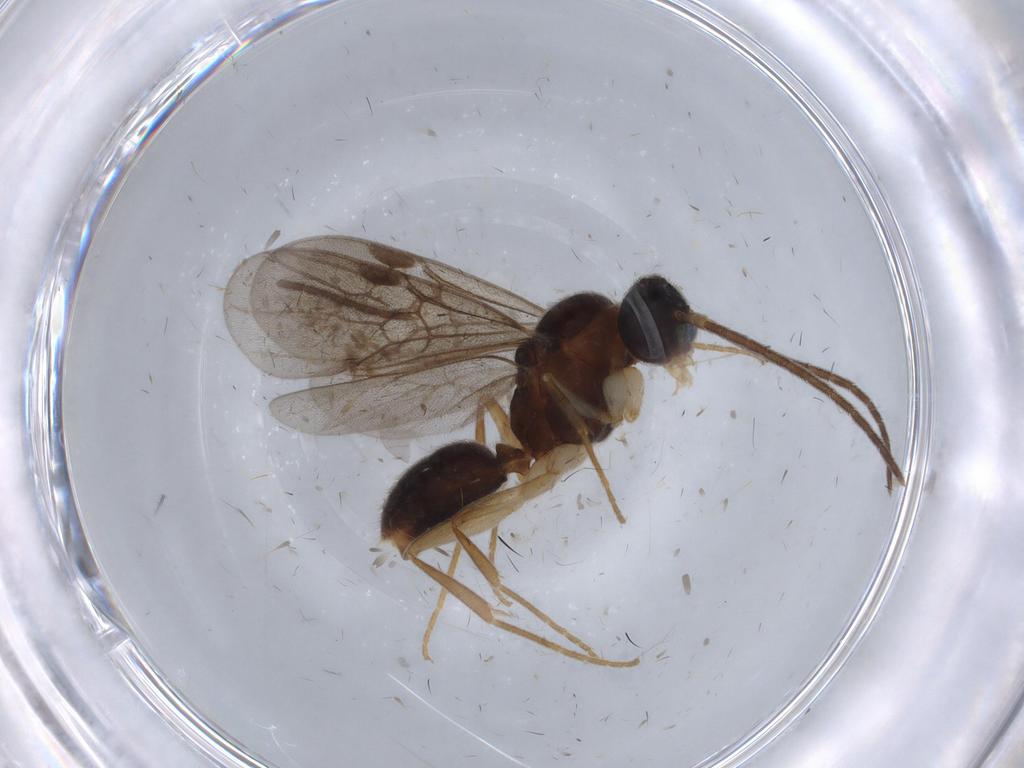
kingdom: Animalia
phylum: Arthropoda
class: Insecta
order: Hymenoptera
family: Formicidae
